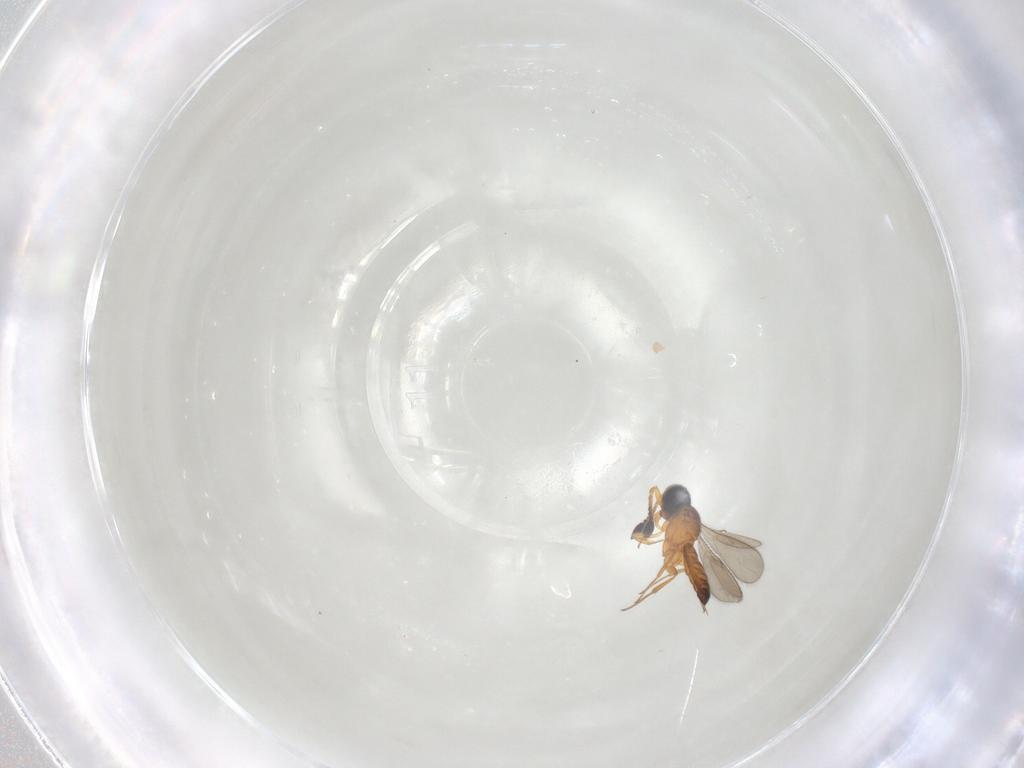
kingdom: Animalia
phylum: Arthropoda
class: Insecta
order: Hymenoptera
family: Scelionidae
